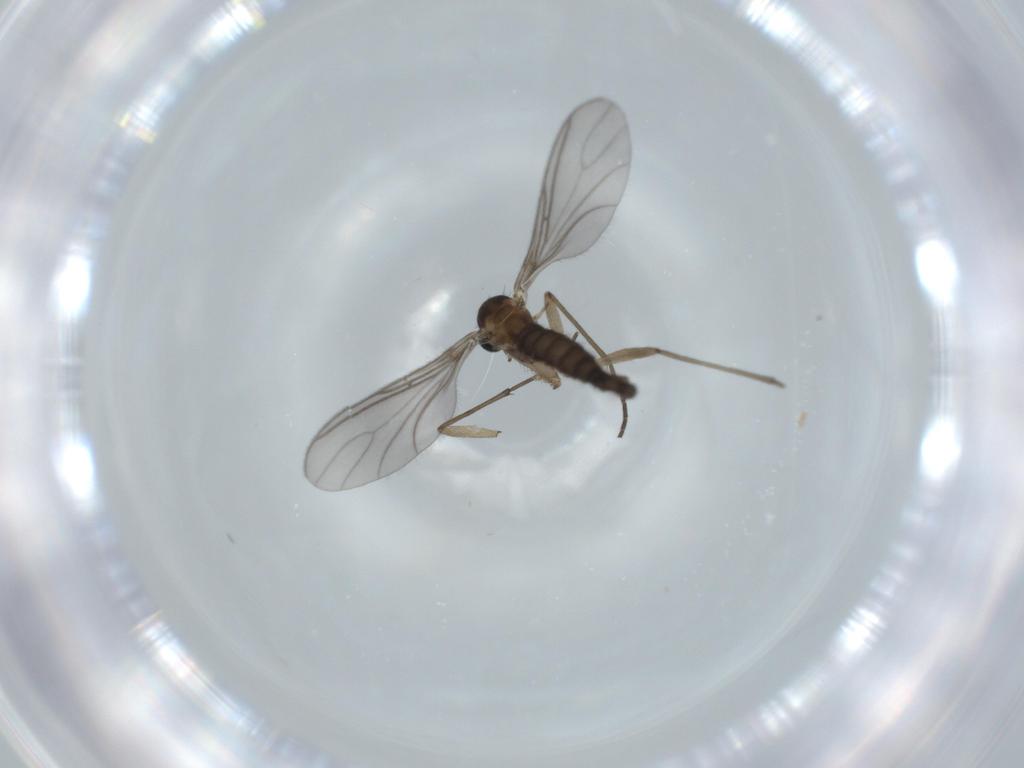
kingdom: Animalia
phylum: Arthropoda
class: Insecta
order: Diptera
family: Sciaridae
